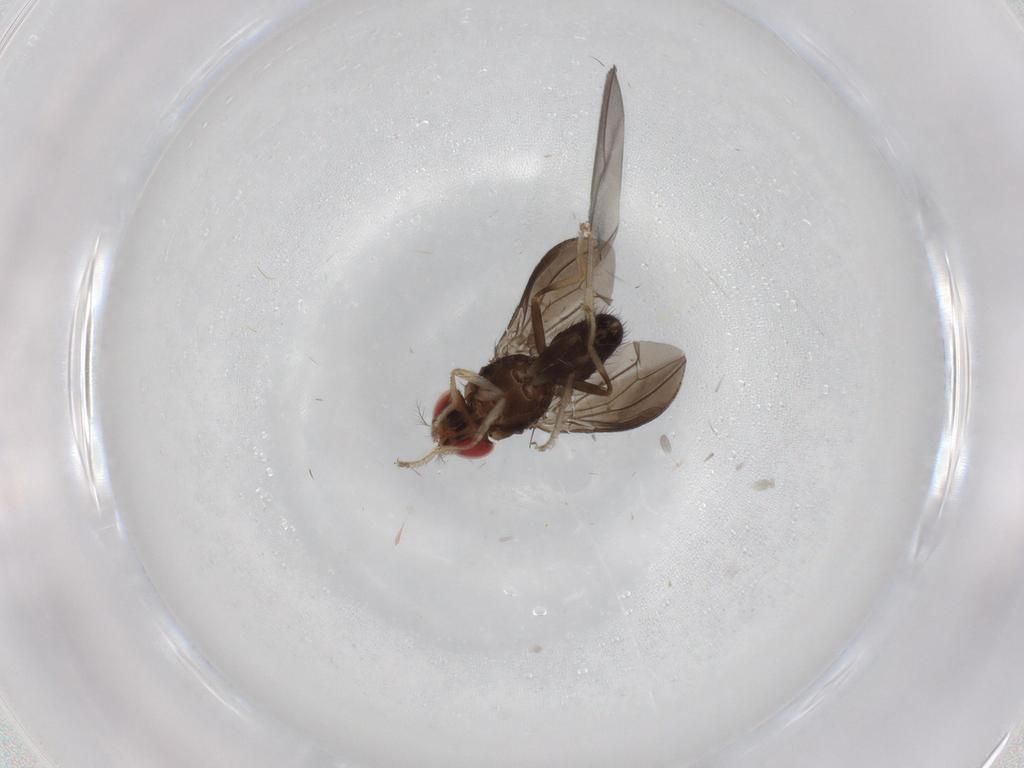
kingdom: Animalia
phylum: Arthropoda
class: Insecta
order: Diptera
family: Dolichopodidae
